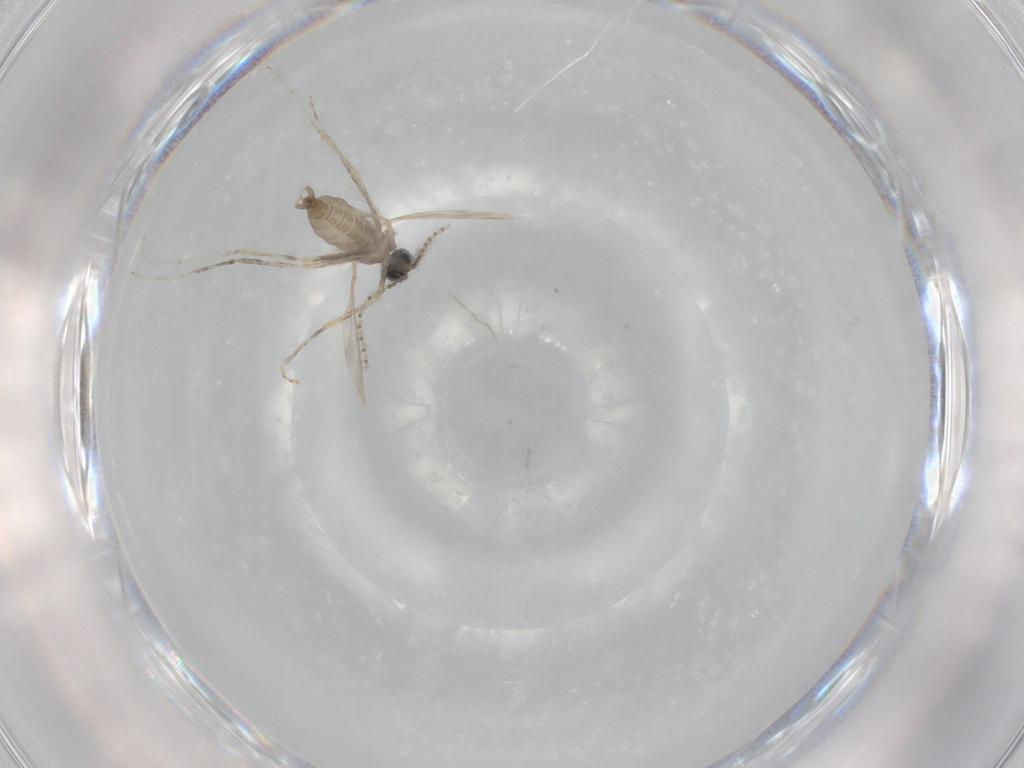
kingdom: Animalia
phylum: Arthropoda
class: Insecta
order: Diptera
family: Cecidomyiidae
